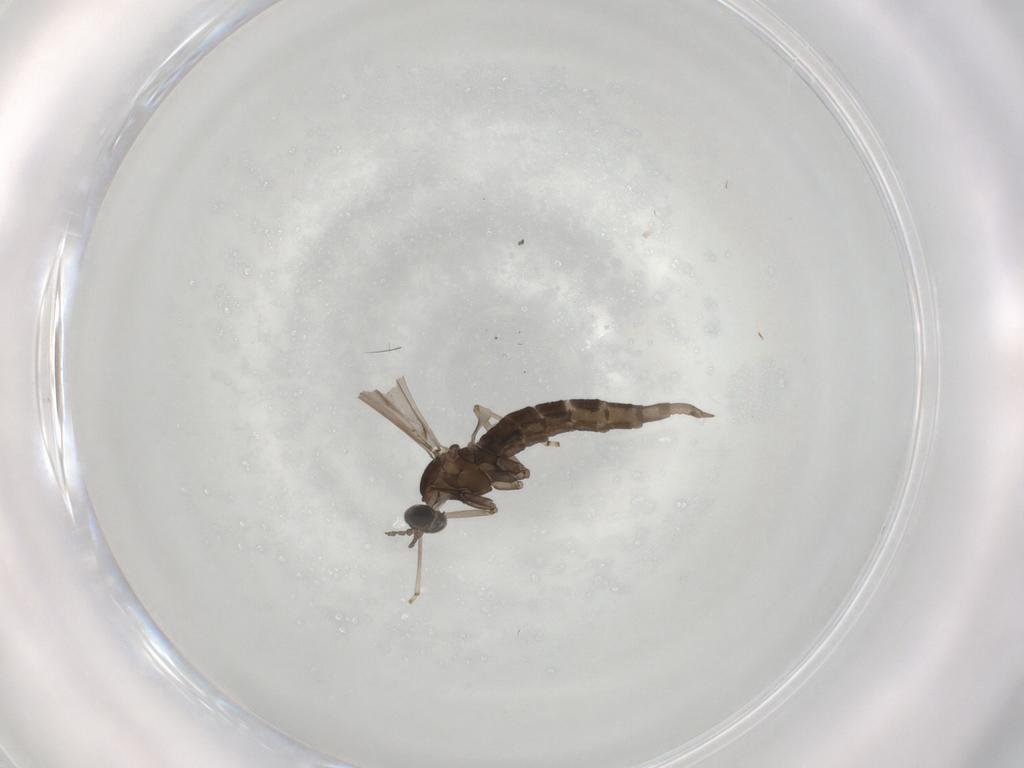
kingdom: Animalia
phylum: Arthropoda
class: Insecta
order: Diptera
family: Cecidomyiidae
